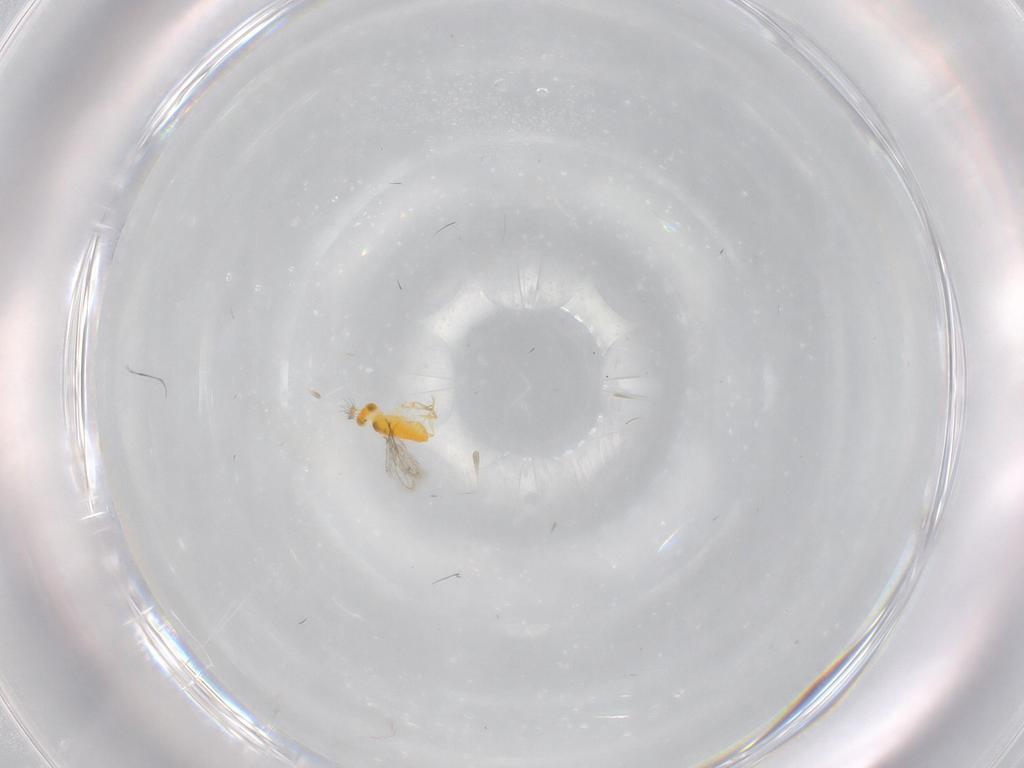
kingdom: Animalia
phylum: Arthropoda
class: Insecta
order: Hymenoptera
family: Aphelinidae
